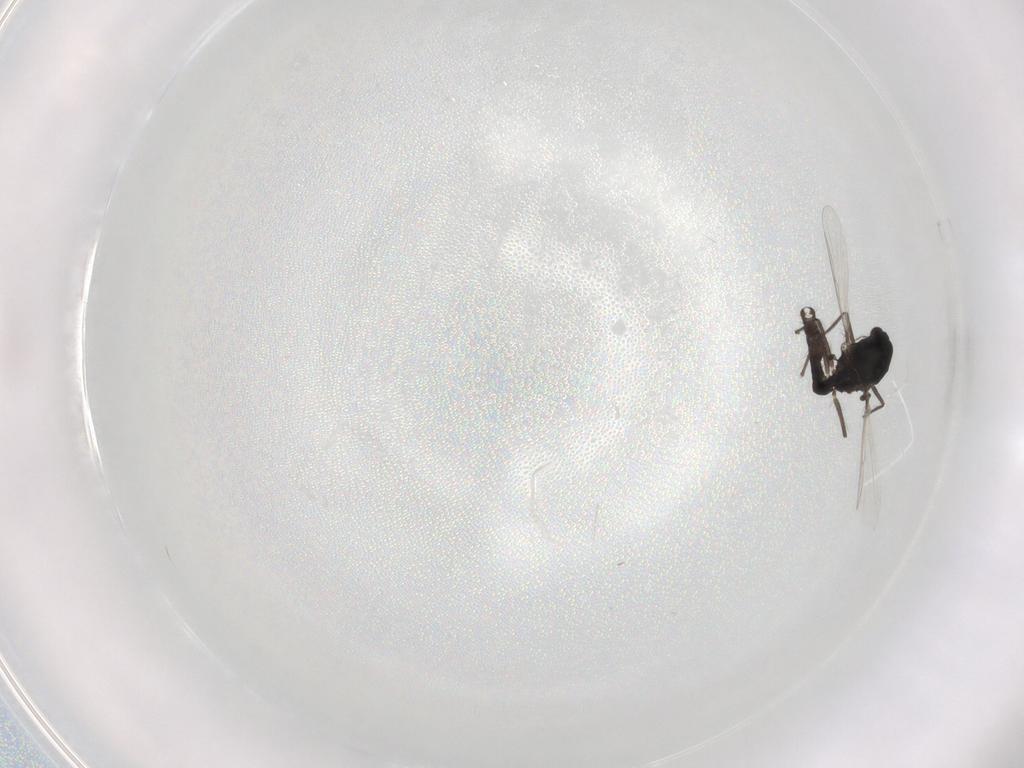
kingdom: Animalia
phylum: Arthropoda
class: Insecta
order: Diptera
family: Chironomidae
